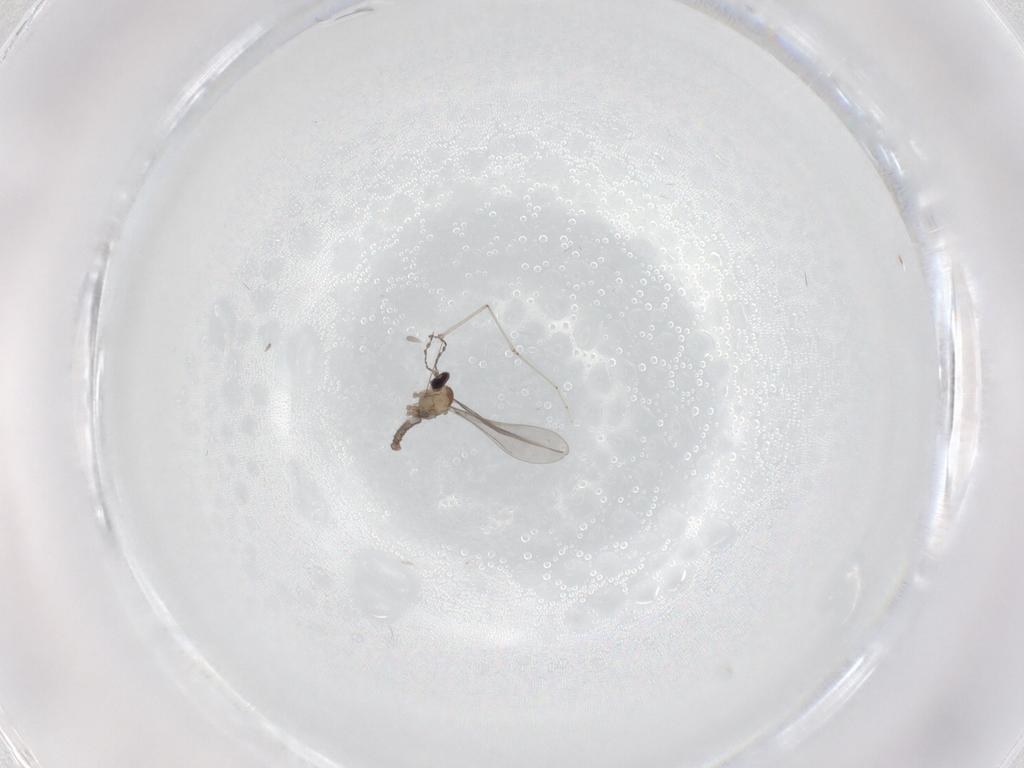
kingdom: Animalia
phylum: Arthropoda
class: Insecta
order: Diptera
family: Cecidomyiidae
